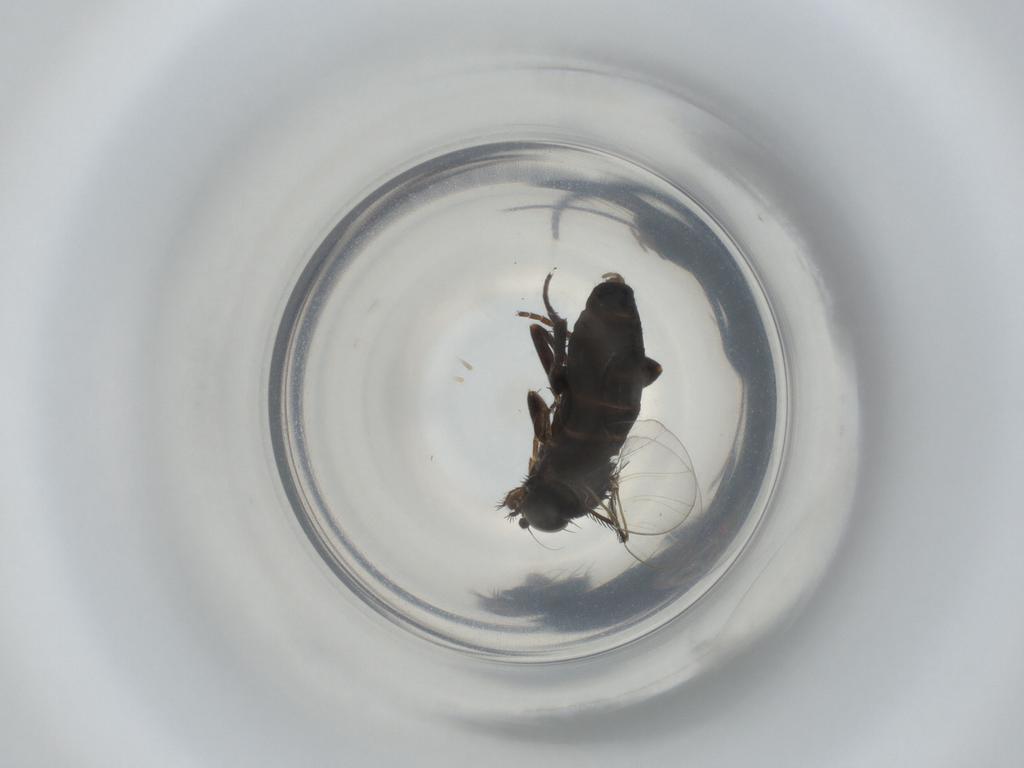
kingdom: Animalia
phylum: Arthropoda
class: Insecta
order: Diptera
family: Phoridae
